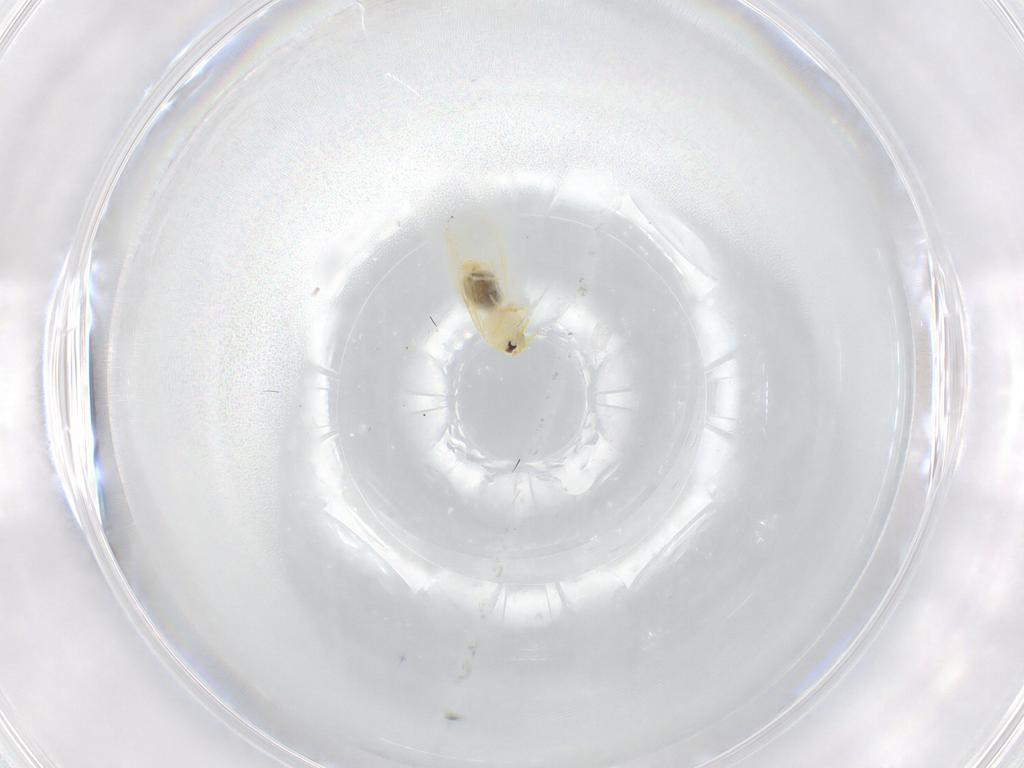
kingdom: Animalia
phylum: Arthropoda
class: Insecta
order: Hemiptera
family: Aleyrodidae
